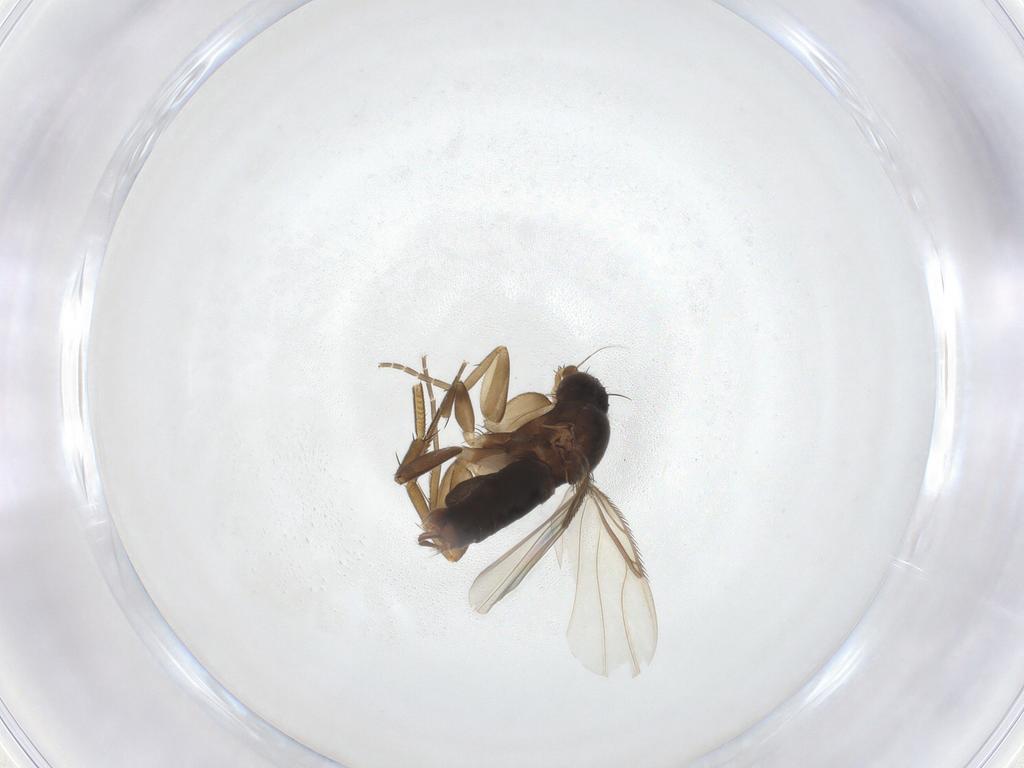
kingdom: Animalia
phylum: Arthropoda
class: Insecta
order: Diptera
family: Phoridae
